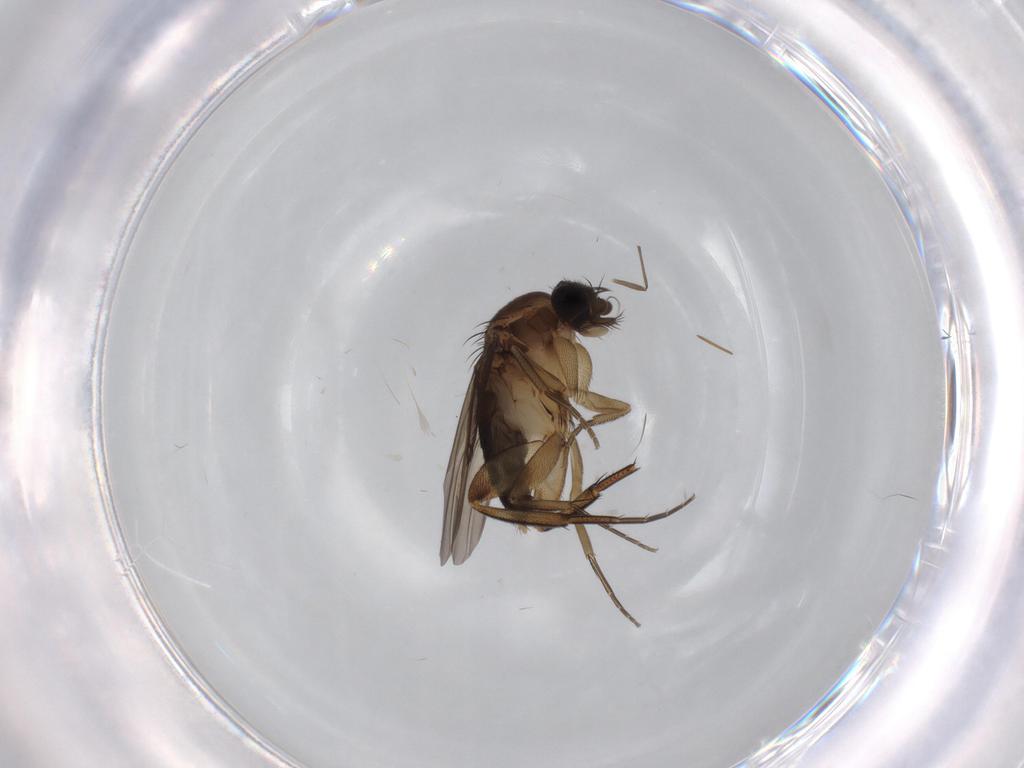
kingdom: Animalia
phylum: Arthropoda
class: Insecta
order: Diptera
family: Phoridae
